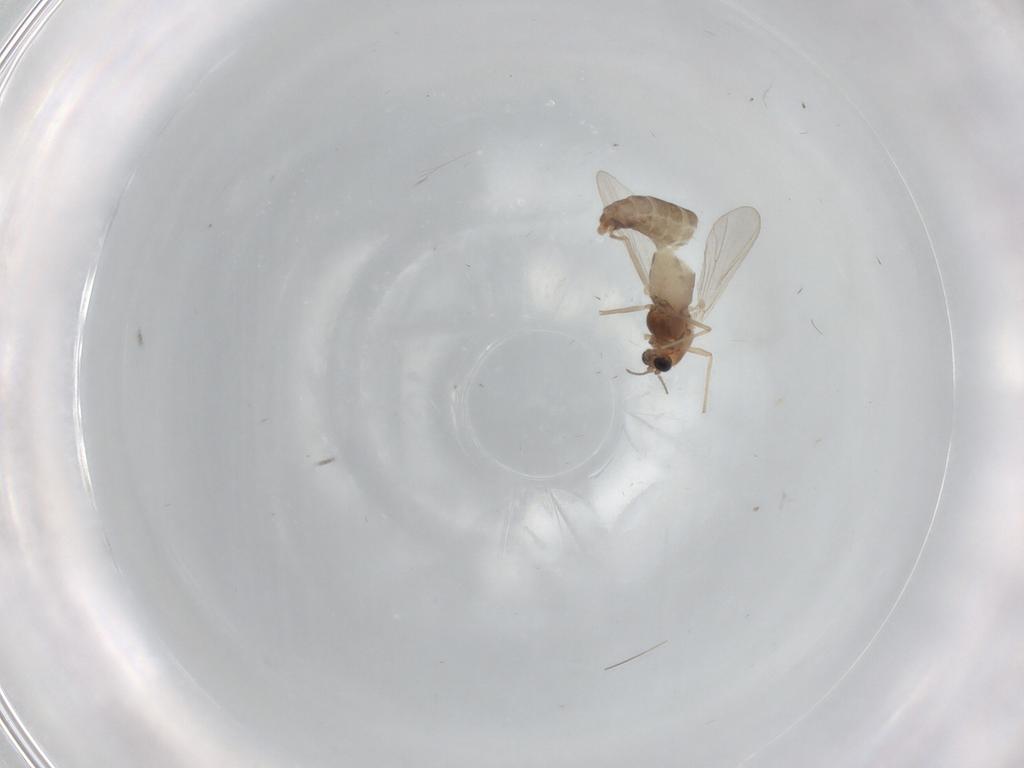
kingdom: Animalia
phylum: Arthropoda
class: Insecta
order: Diptera
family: Chironomidae
